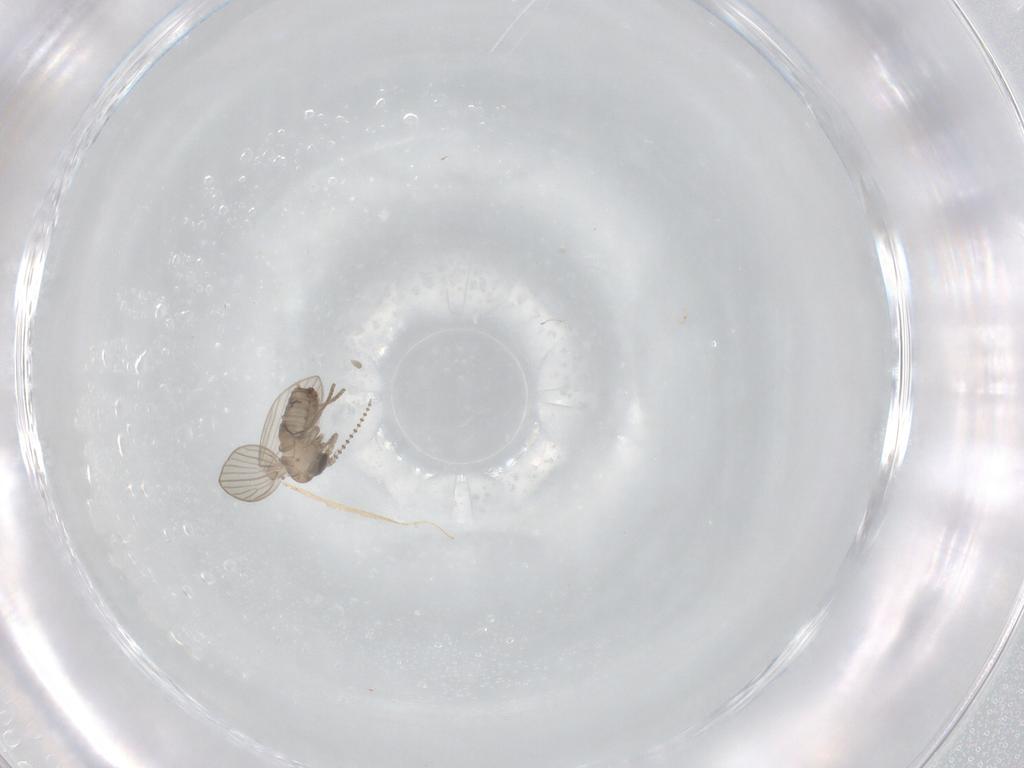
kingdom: Animalia
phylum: Arthropoda
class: Insecta
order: Diptera
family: Psychodidae
